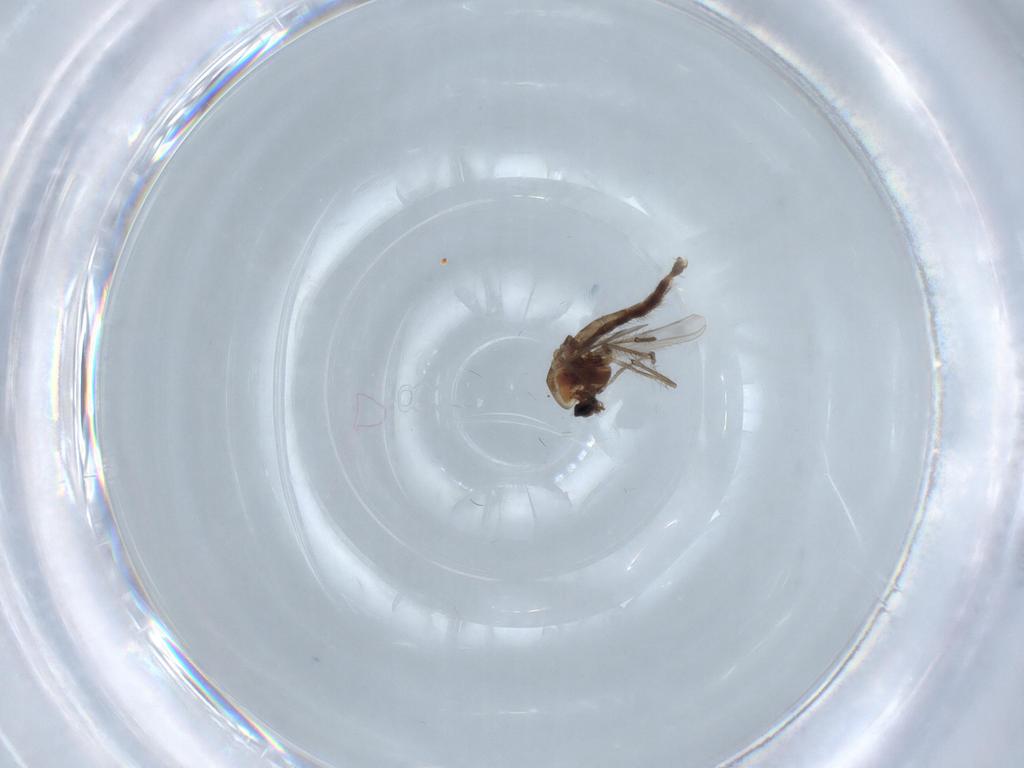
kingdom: Animalia
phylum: Arthropoda
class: Insecta
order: Diptera
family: Chironomidae
